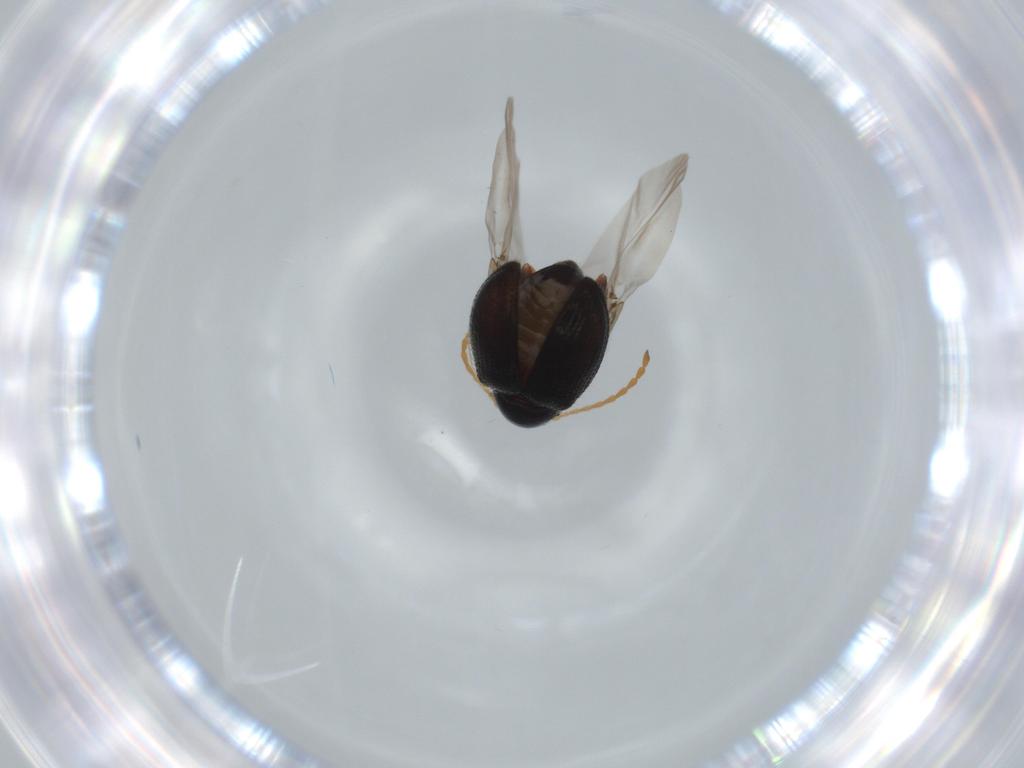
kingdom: Animalia
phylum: Arthropoda
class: Insecta
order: Coleoptera
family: Chrysomelidae
